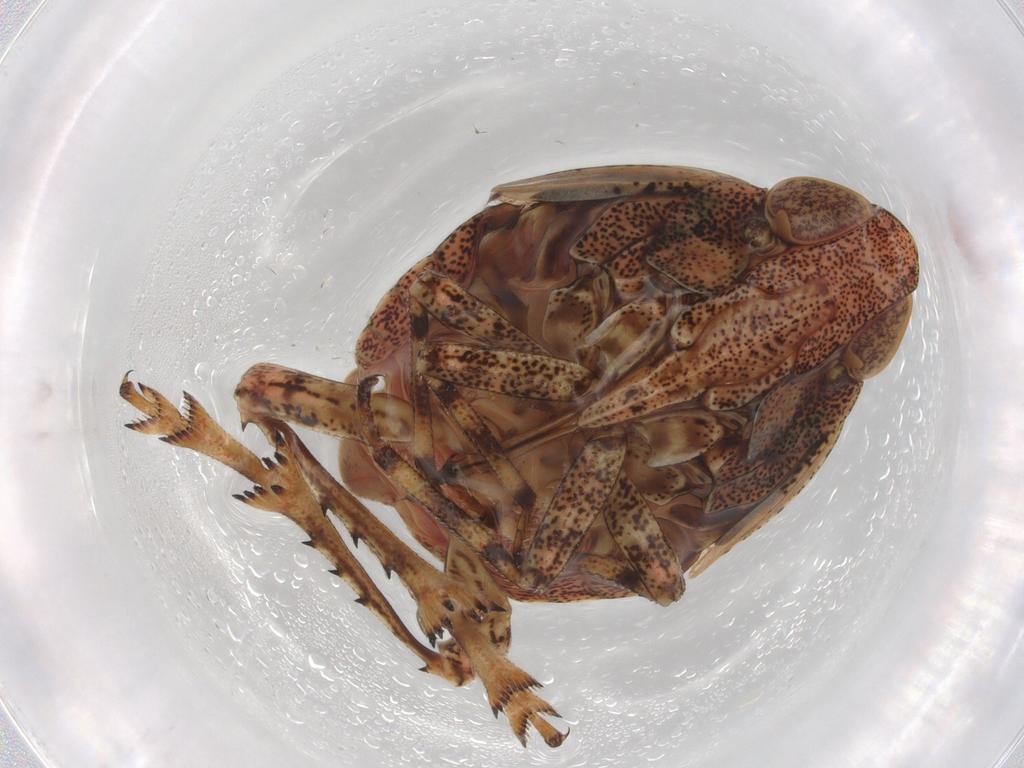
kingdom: Animalia
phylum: Arthropoda
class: Insecta
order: Hemiptera
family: Fulgoroidea_incertae_sedis
